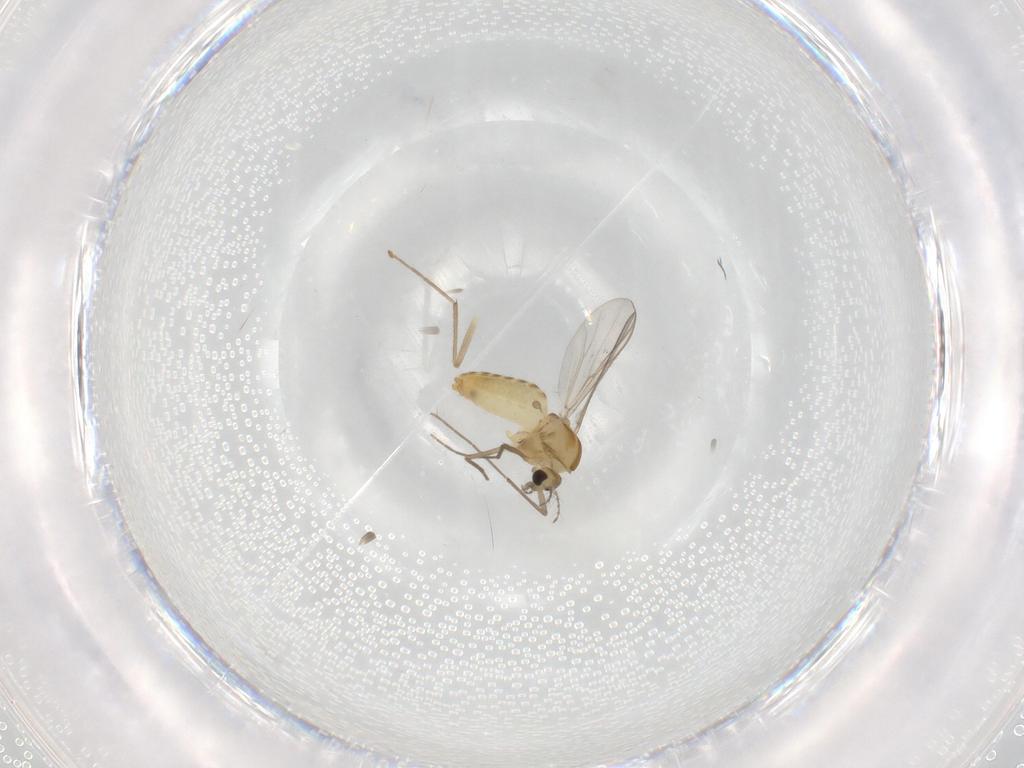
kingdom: Animalia
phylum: Arthropoda
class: Insecta
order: Diptera
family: Chironomidae
